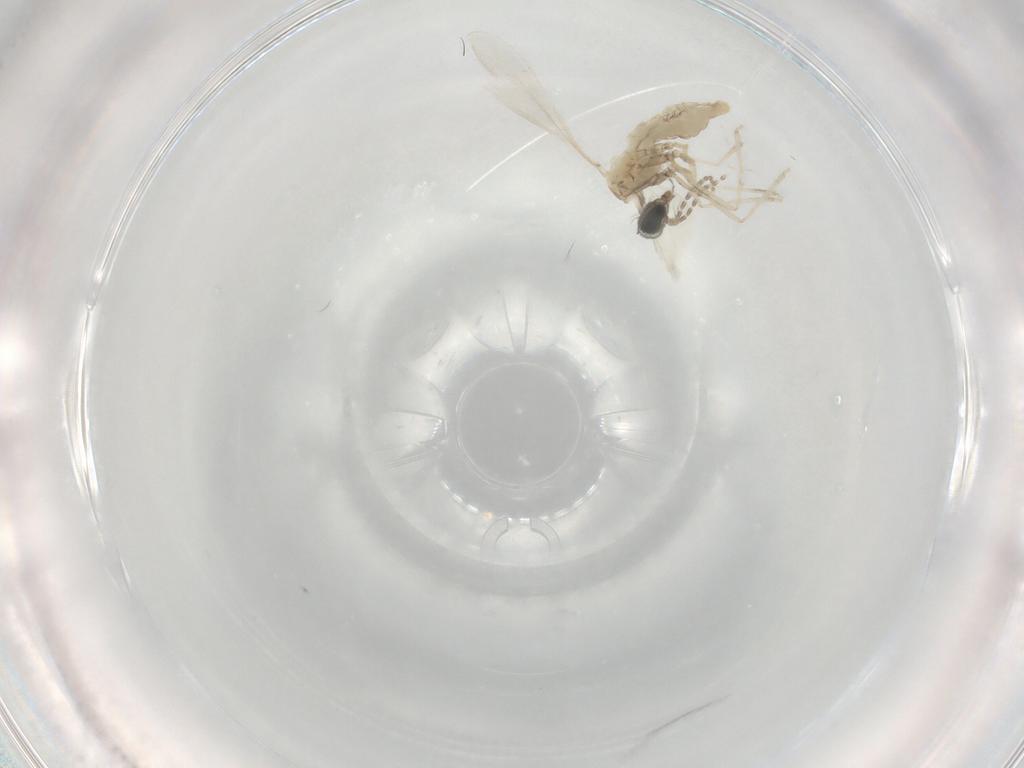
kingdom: Animalia
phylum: Arthropoda
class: Insecta
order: Diptera
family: Cecidomyiidae
